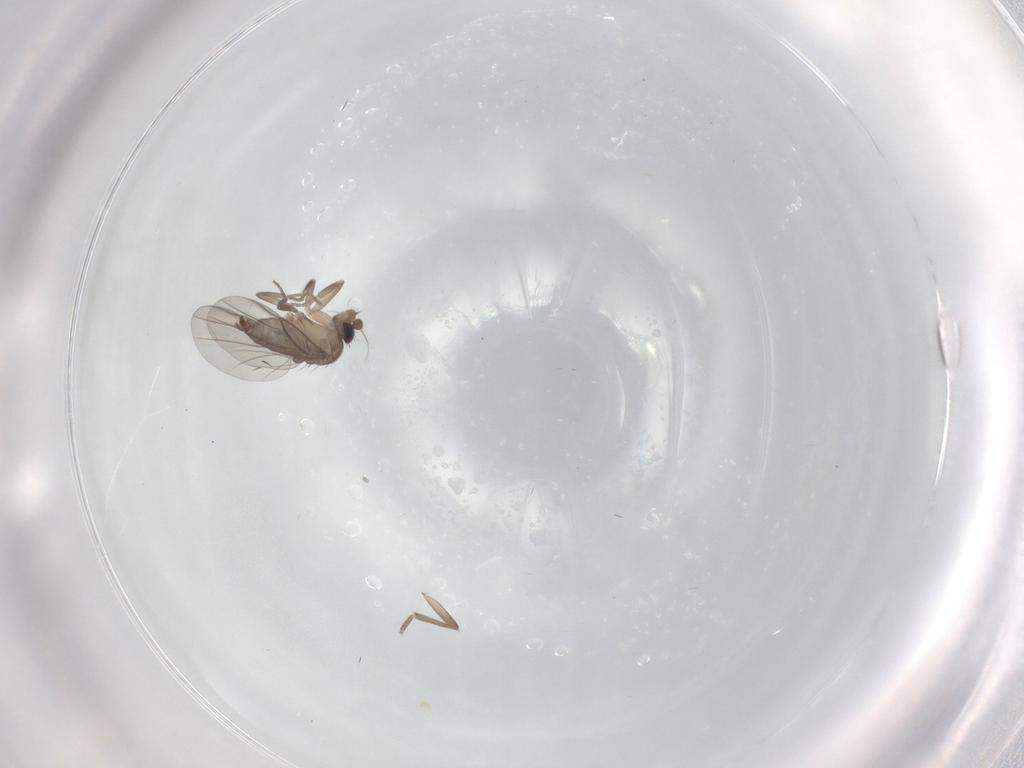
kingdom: Animalia
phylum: Arthropoda
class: Insecta
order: Diptera
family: Phoridae
